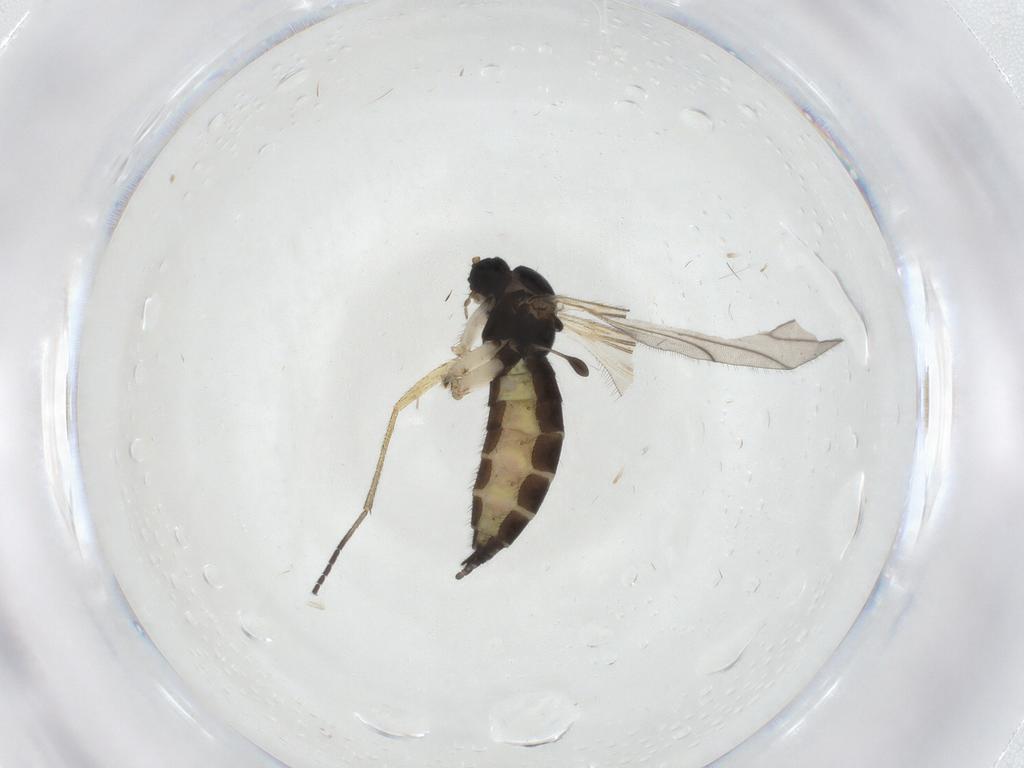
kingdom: Animalia
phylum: Arthropoda
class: Insecta
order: Diptera
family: Sciaridae
